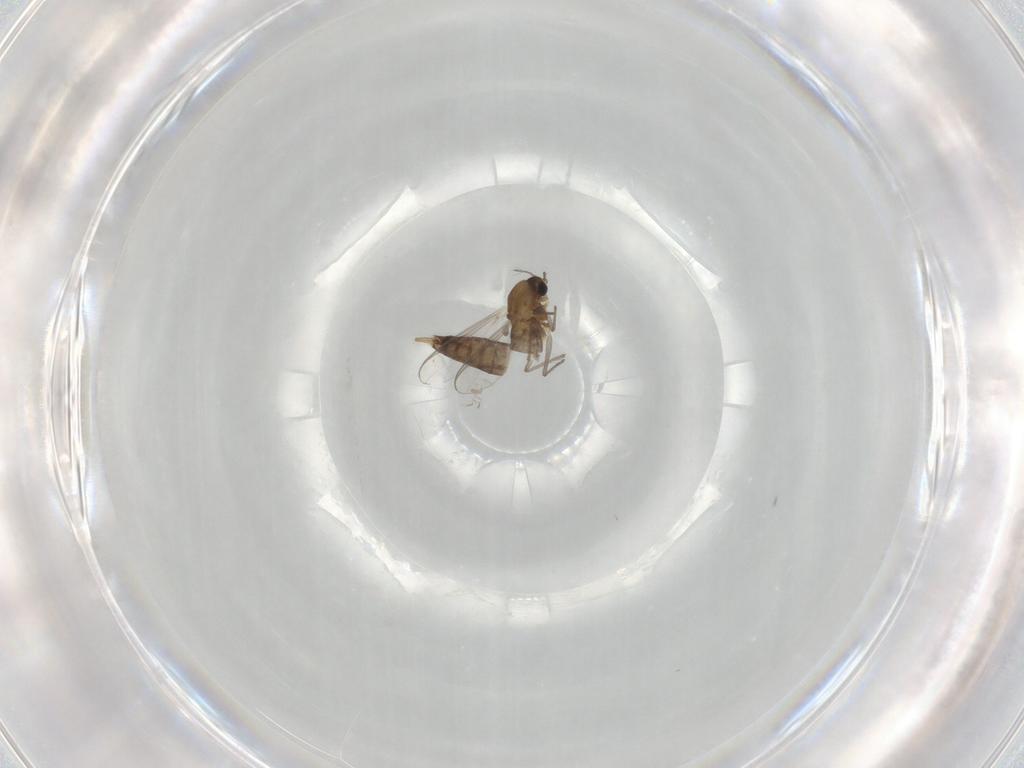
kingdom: Animalia
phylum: Arthropoda
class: Insecta
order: Diptera
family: Chironomidae
